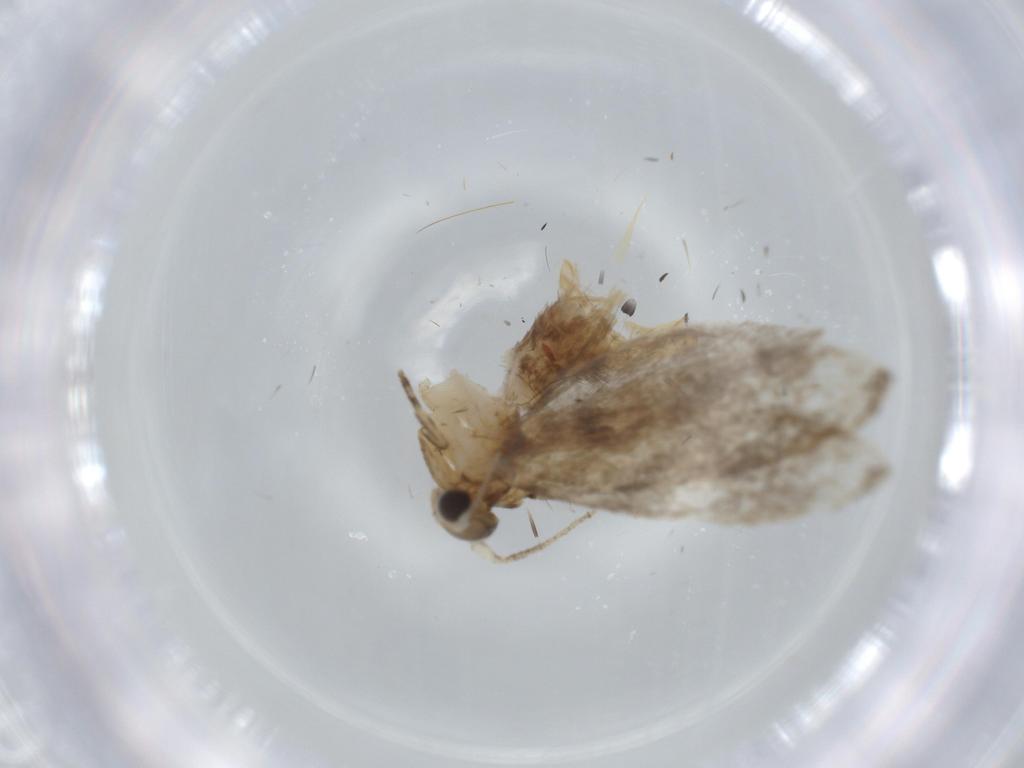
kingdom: Animalia
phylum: Arthropoda
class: Insecta
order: Lepidoptera
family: Tineidae
